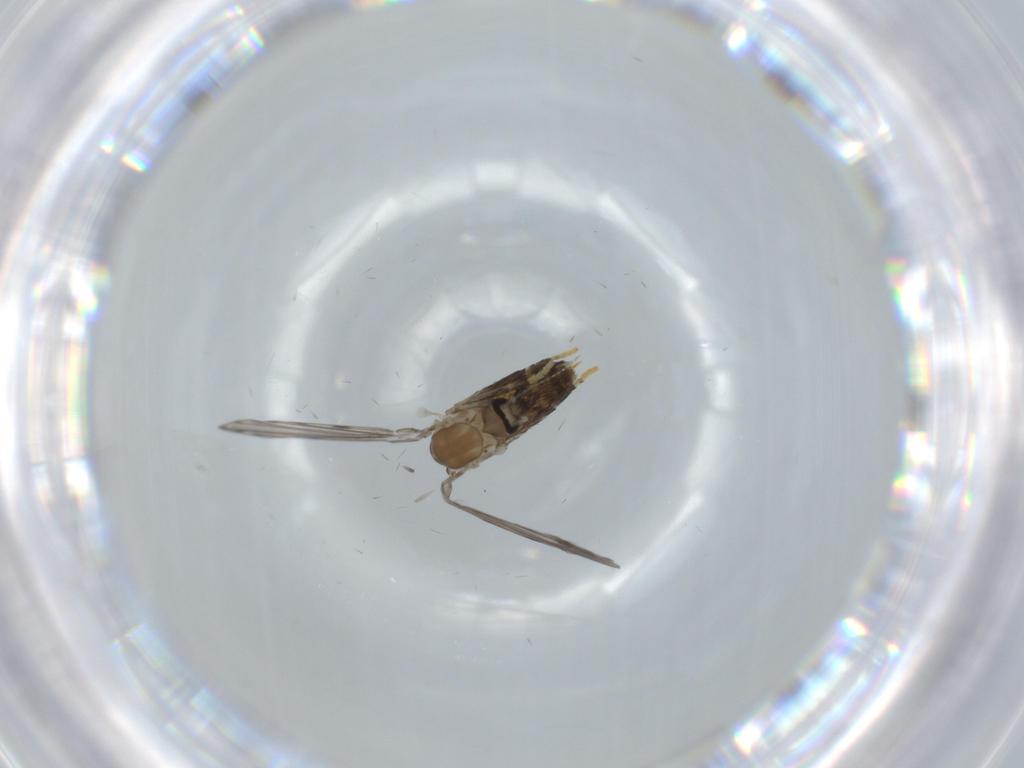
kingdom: Animalia
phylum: Arthropoda
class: Insecta
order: Diptera
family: Psychodidae
